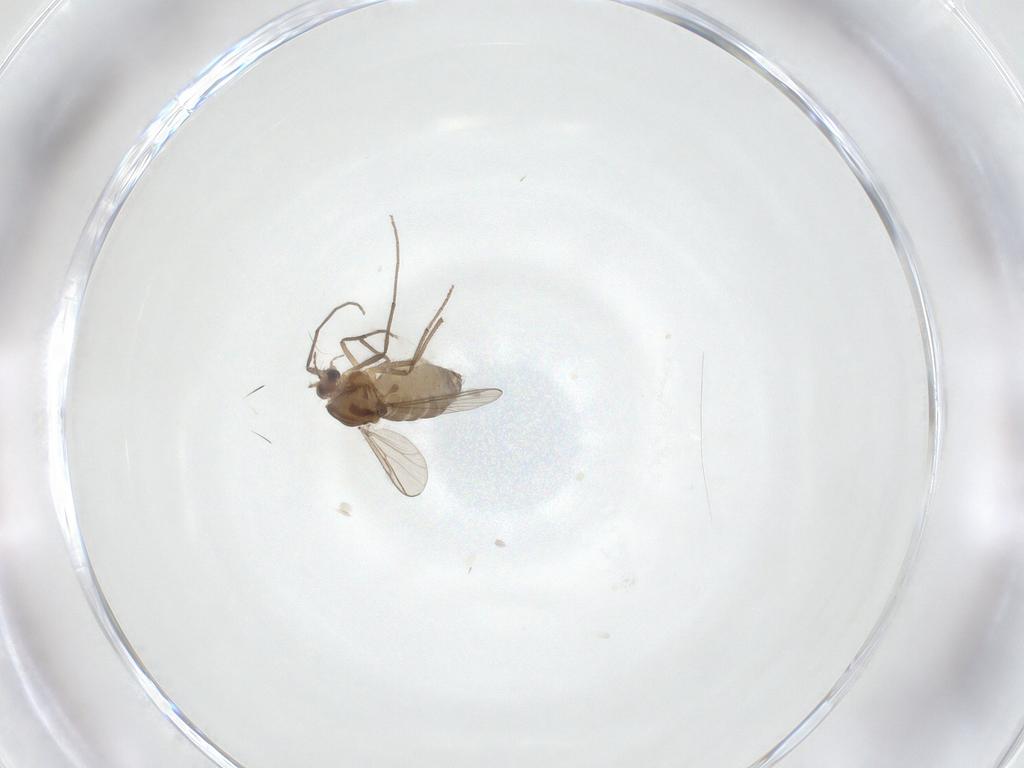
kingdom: Animalia
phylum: Arthropoda
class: Insecta
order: Diptera
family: Chironomidae
